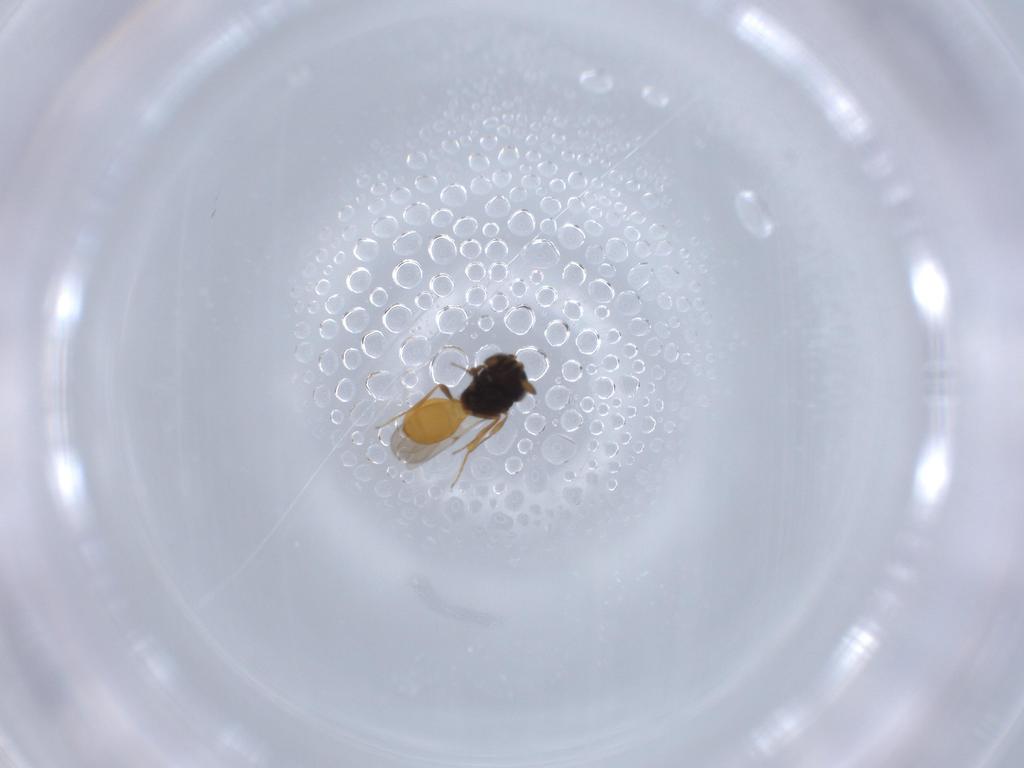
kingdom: Animalia
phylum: Arthropoda
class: Insecta
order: Hymenoptera
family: Scelionidae
